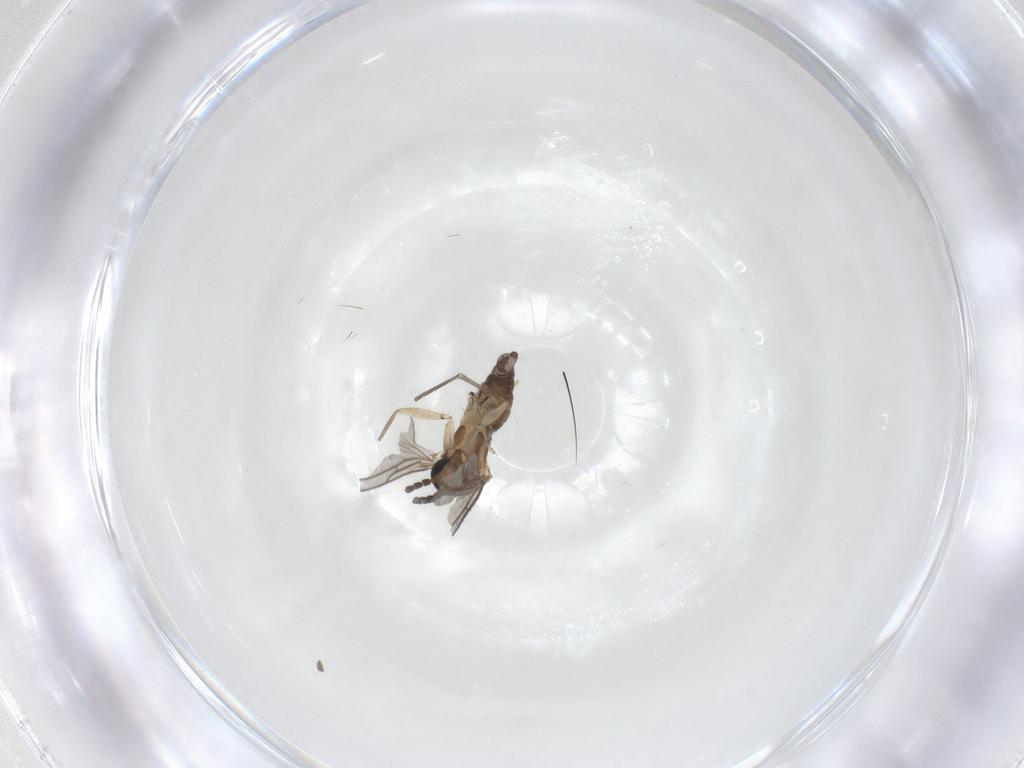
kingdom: Animalia
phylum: Arthropoda
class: Insecta
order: Diptera
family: Sciaridae
